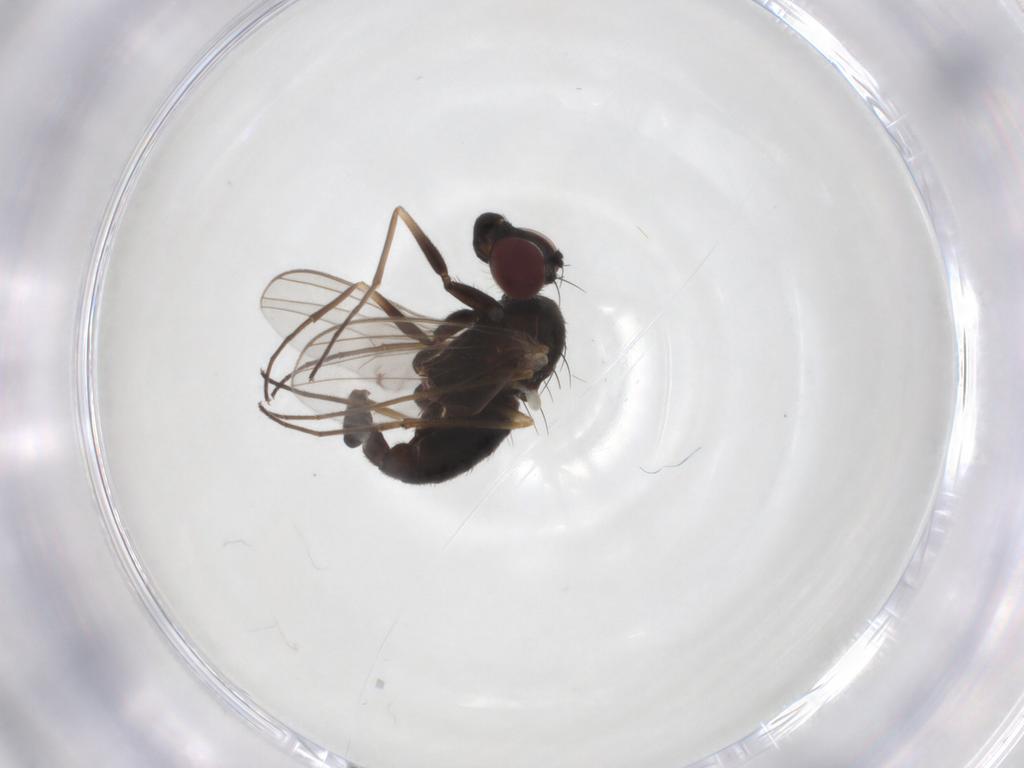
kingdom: Animalia
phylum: Arthropoda
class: Insecta
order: Diptera
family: Dolichopodidae
